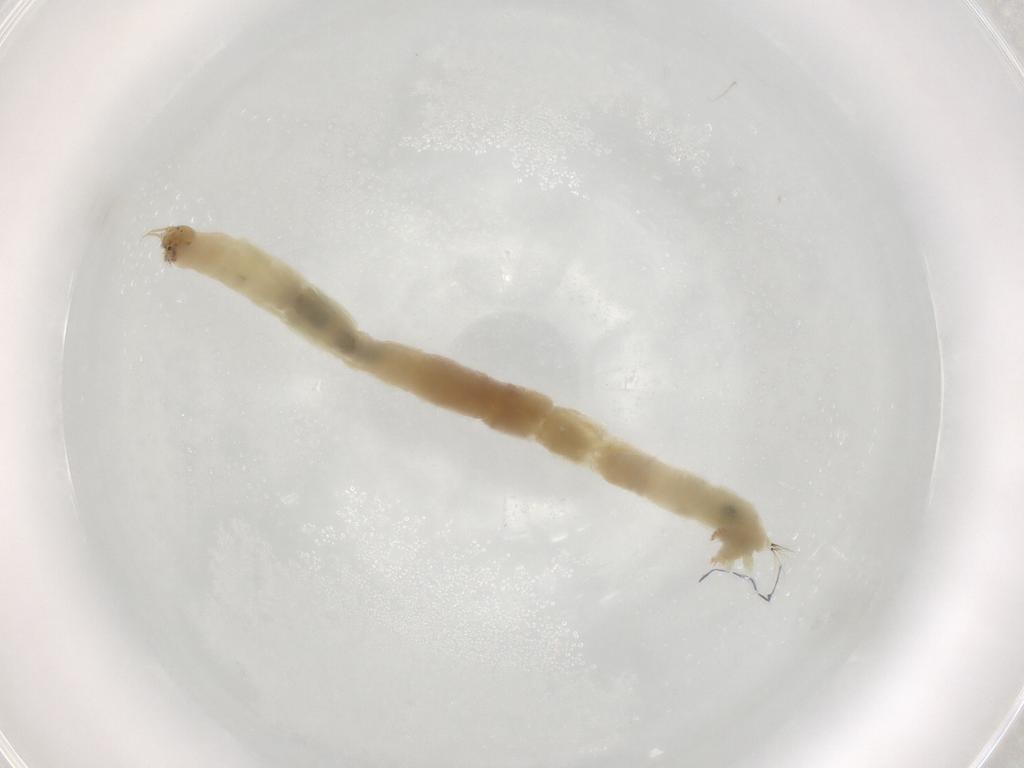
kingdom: Animalia
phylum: Arthropoda
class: Insecta
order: Diptera
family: Chironomidae
